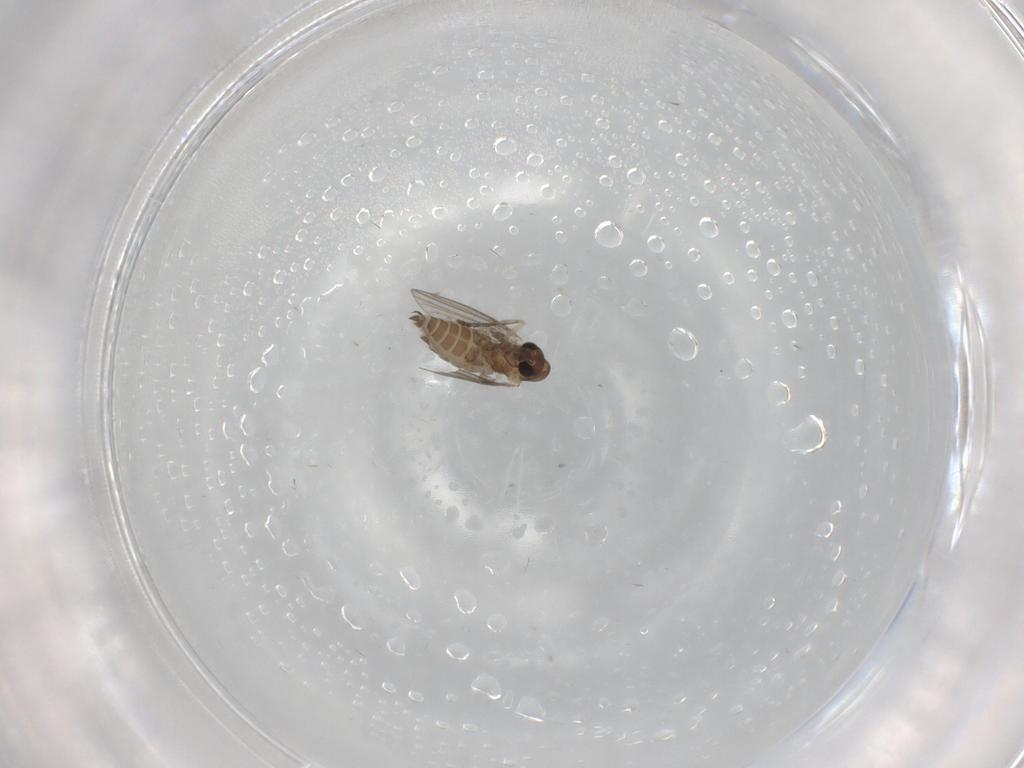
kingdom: Animalia
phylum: Arthropoda
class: Insecta
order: Diptera
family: Ceratopogonidae
